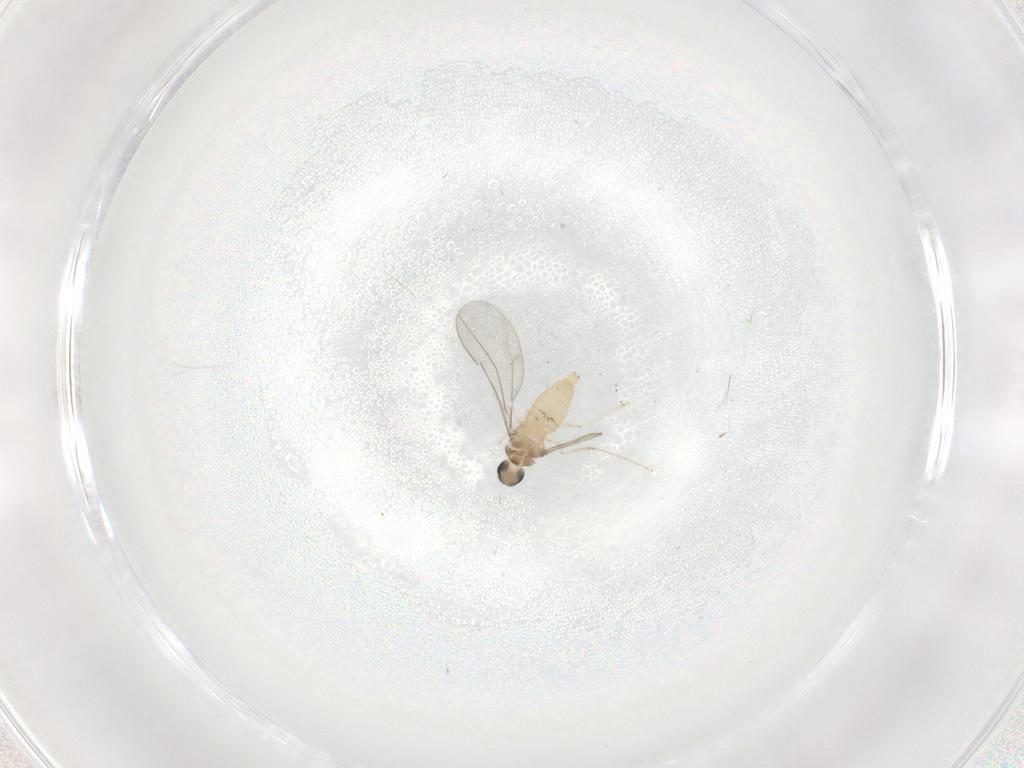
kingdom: Animalia
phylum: Arthropoda
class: Insecta
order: Diptera
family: Cecidomyiidae
